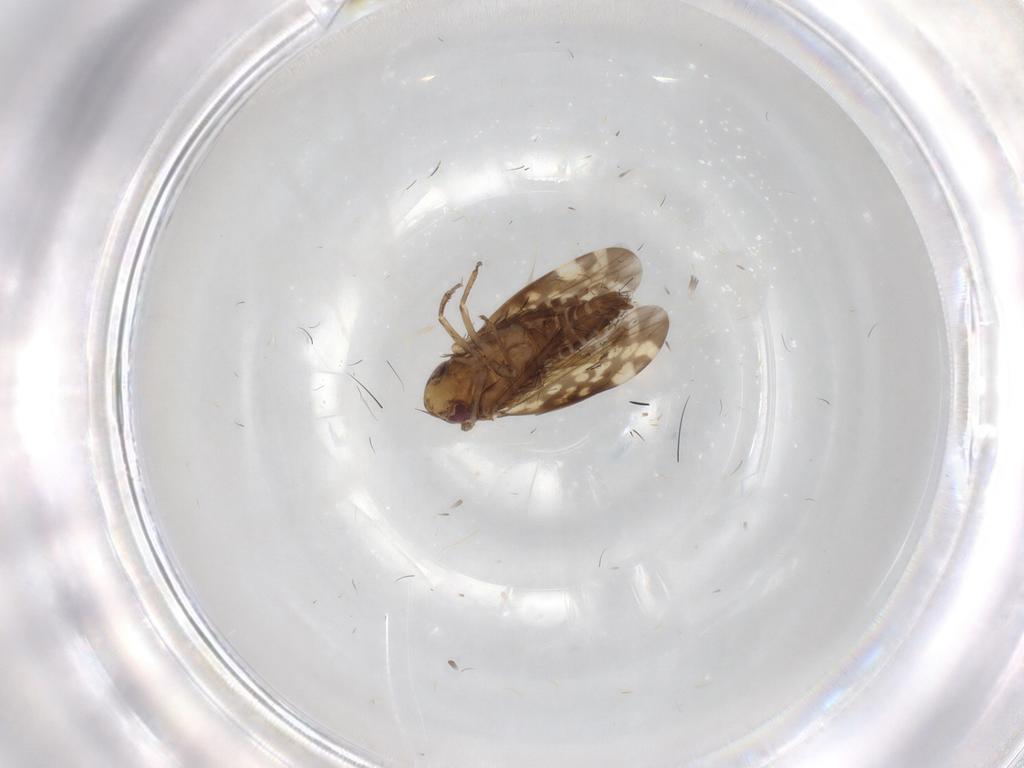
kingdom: Animalia
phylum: Arthropoda
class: Insecta
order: Hemiptera
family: Cicadellidae
